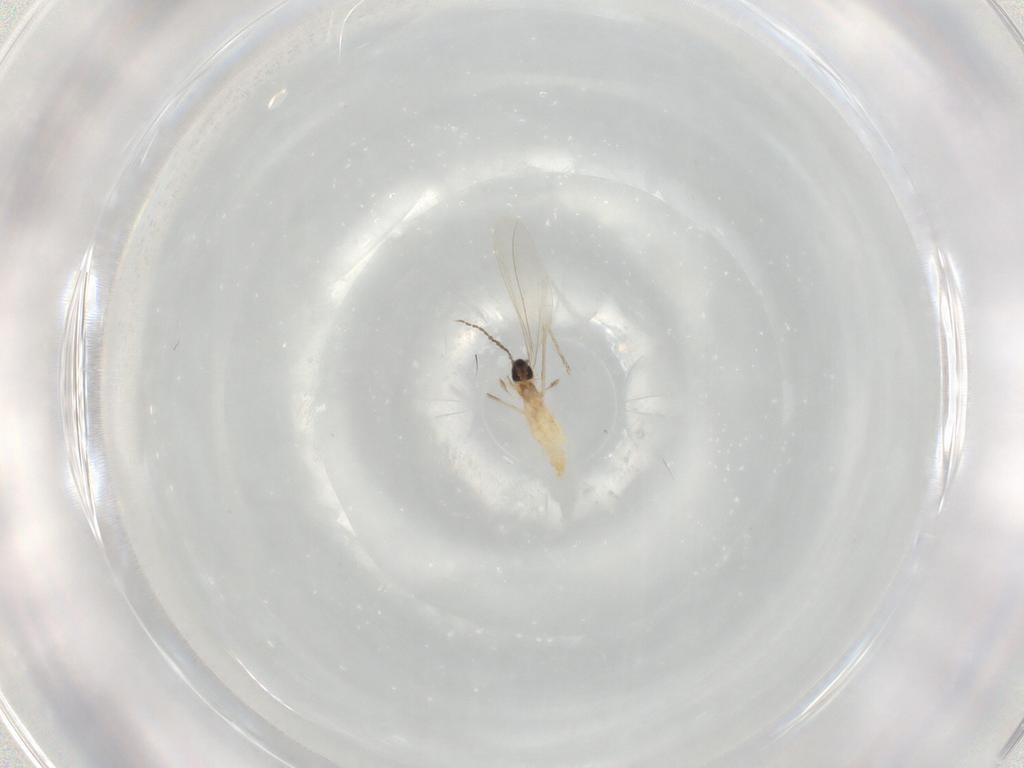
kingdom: Animalia
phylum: Arthropoda
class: Insecta
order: Diptera
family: Cecidomyiidae
